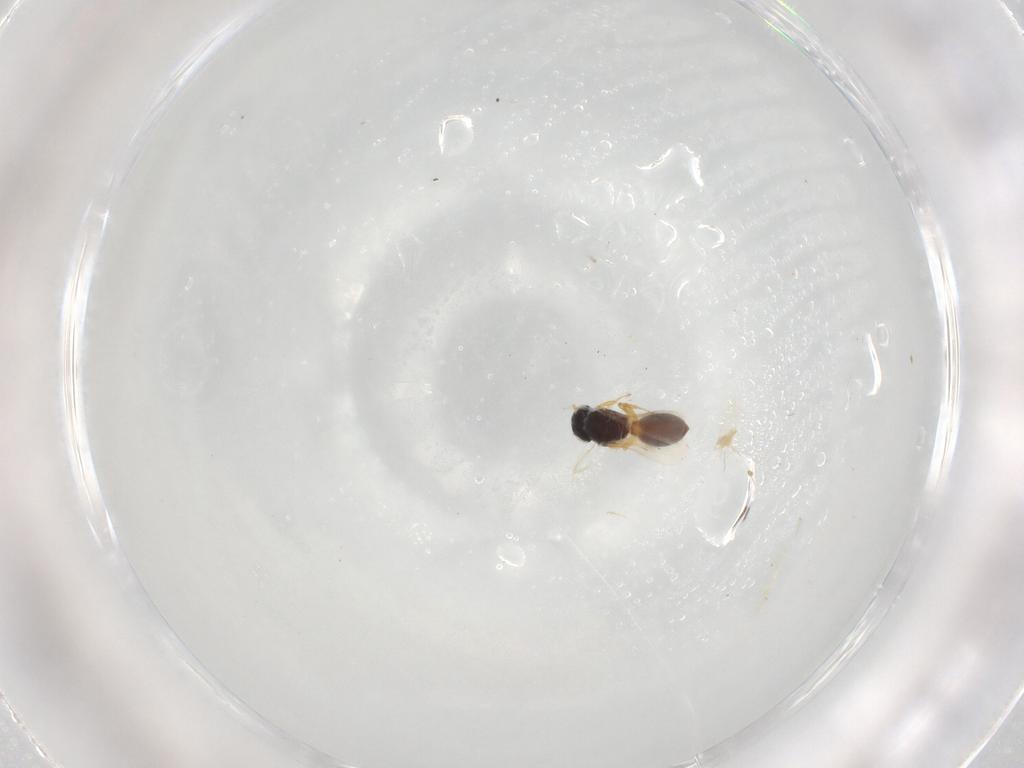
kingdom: Animalia
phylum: Arthropoda
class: Insecta
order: Hymenoptera
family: Scelionidae
